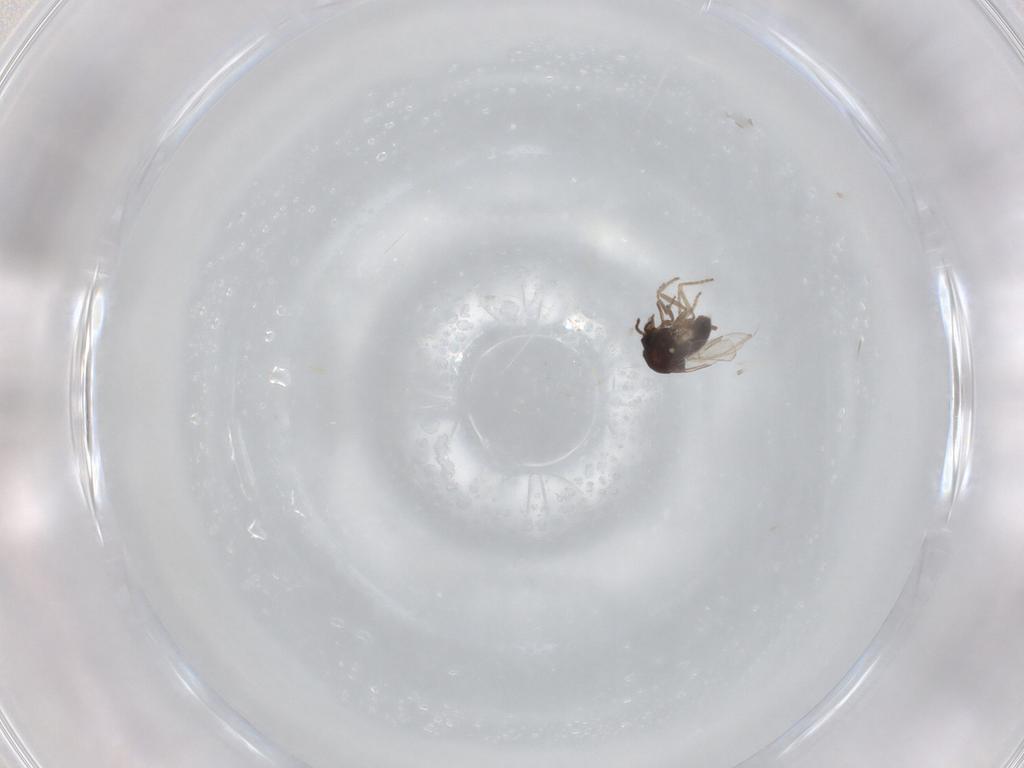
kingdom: Animalia
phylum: Arthropoda
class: Insecta
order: Diptera
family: Ceratopogonidae
